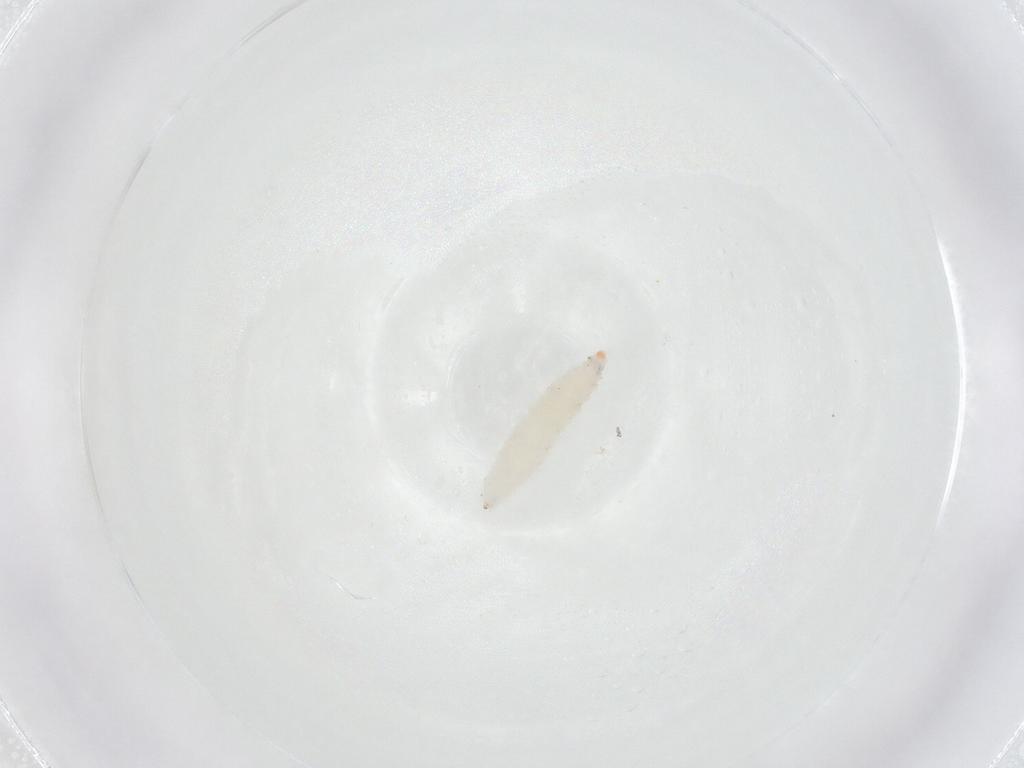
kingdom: Animalia
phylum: Arthropoda
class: Insecta
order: Diptera
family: Cecidomyiidae
